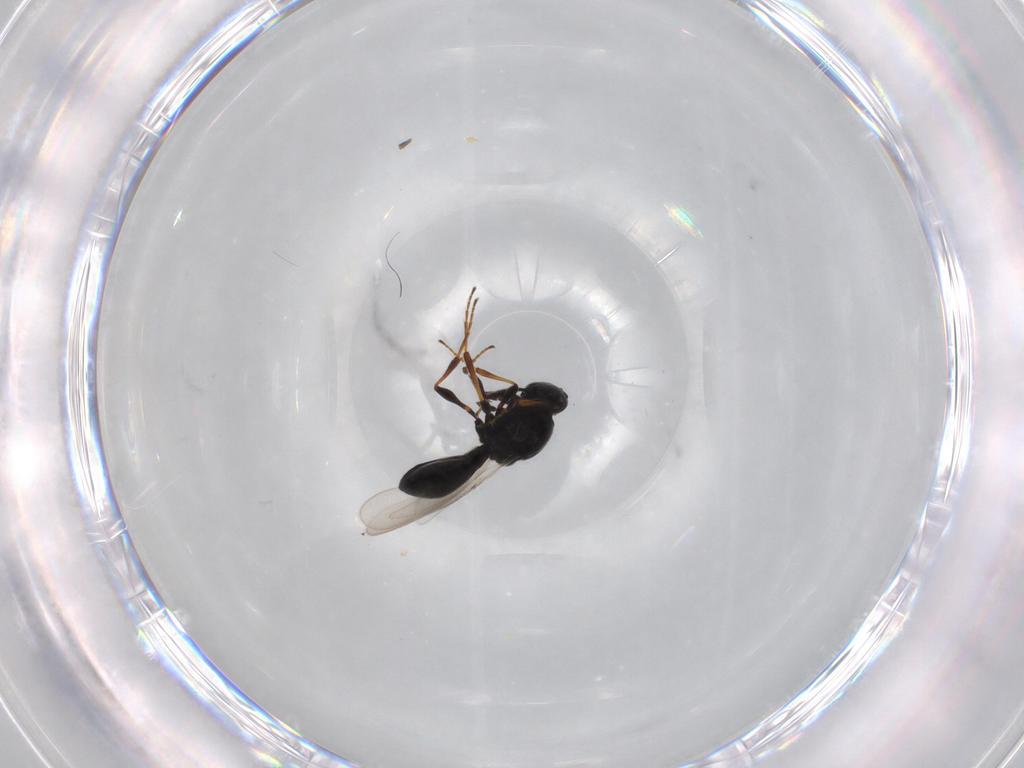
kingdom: Animalia
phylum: Arthropoda
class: Insecta
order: Hymenoptera
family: Platygastridae
